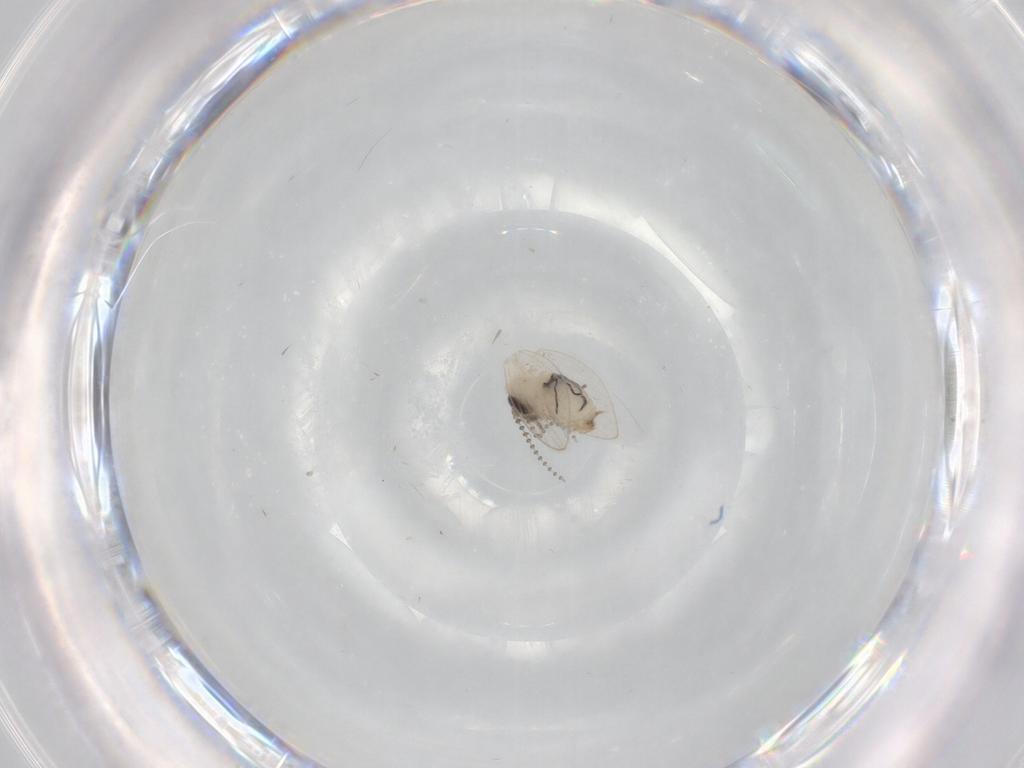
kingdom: Animalia
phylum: Arthropoda
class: Insecta
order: Diptera
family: Psychodidae
